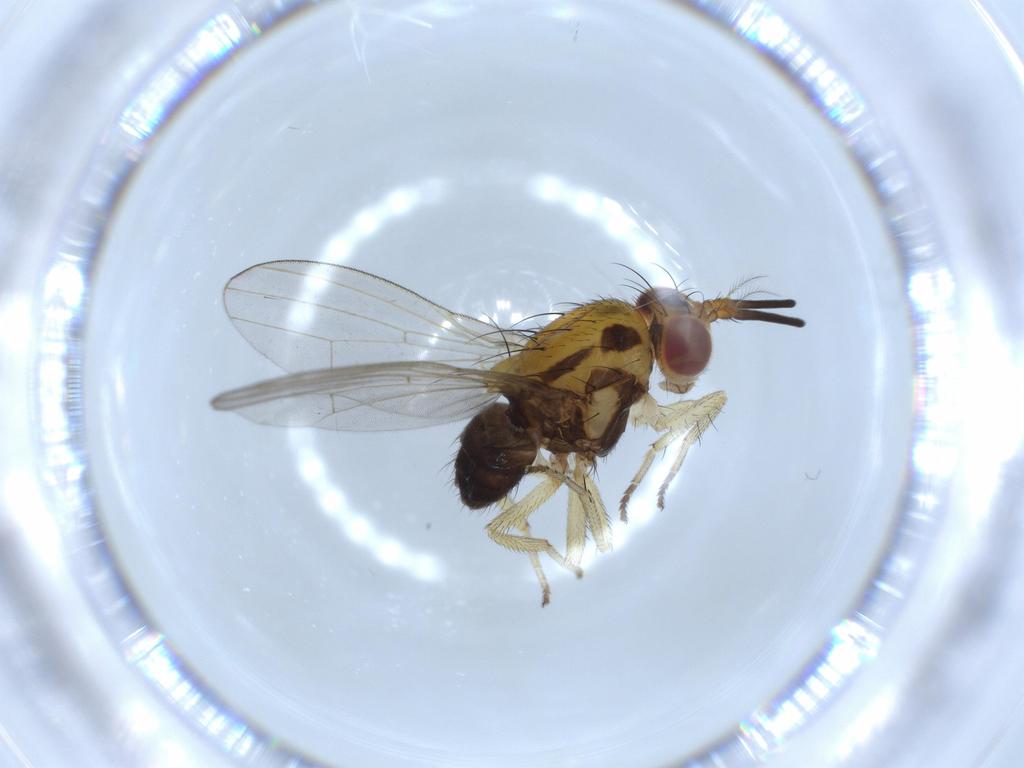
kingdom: Animalia
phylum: Arthropoda
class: Insecta
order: Diptera
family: Lauxaniidae
